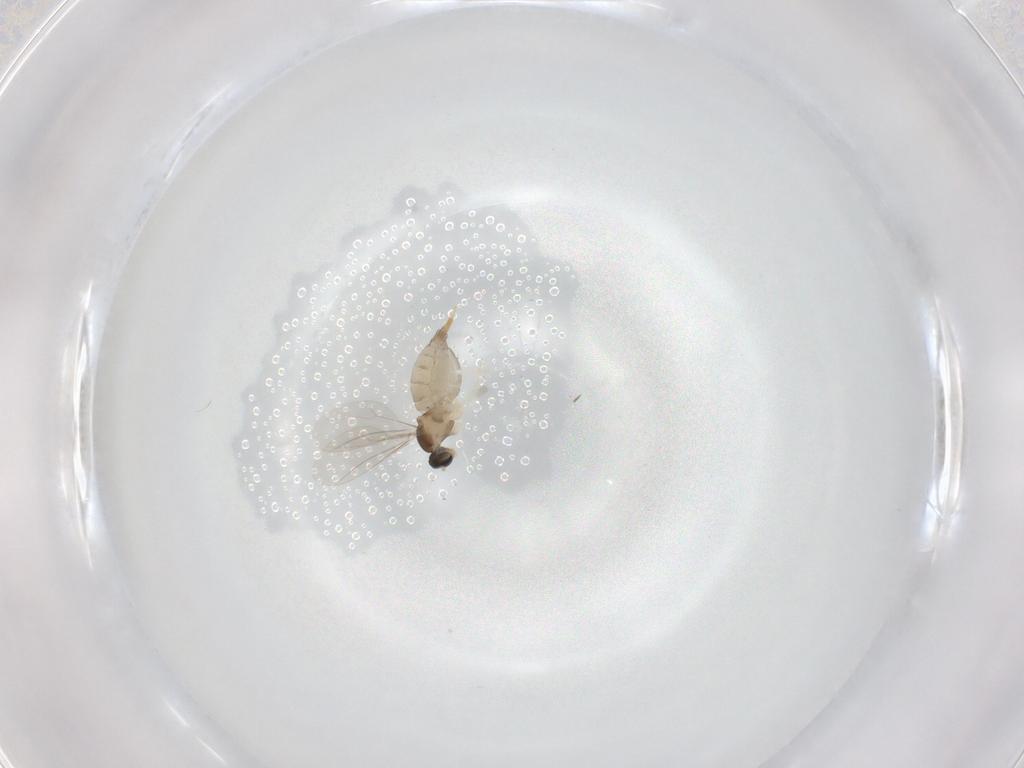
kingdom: Animalia
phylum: Arthropoda
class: Insecta
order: Diptera
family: Cecidomyiidae
